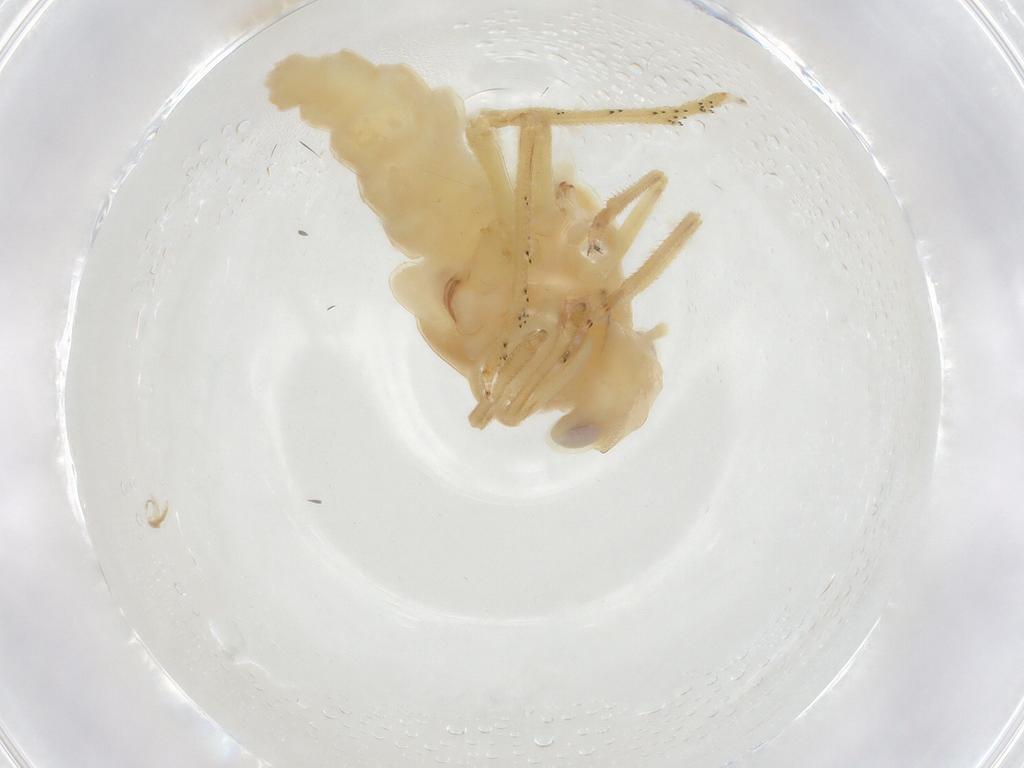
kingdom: Animalia
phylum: Arthropoda
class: Insecta
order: Hemiptera
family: Fulgoroidea_incertae_sedis
